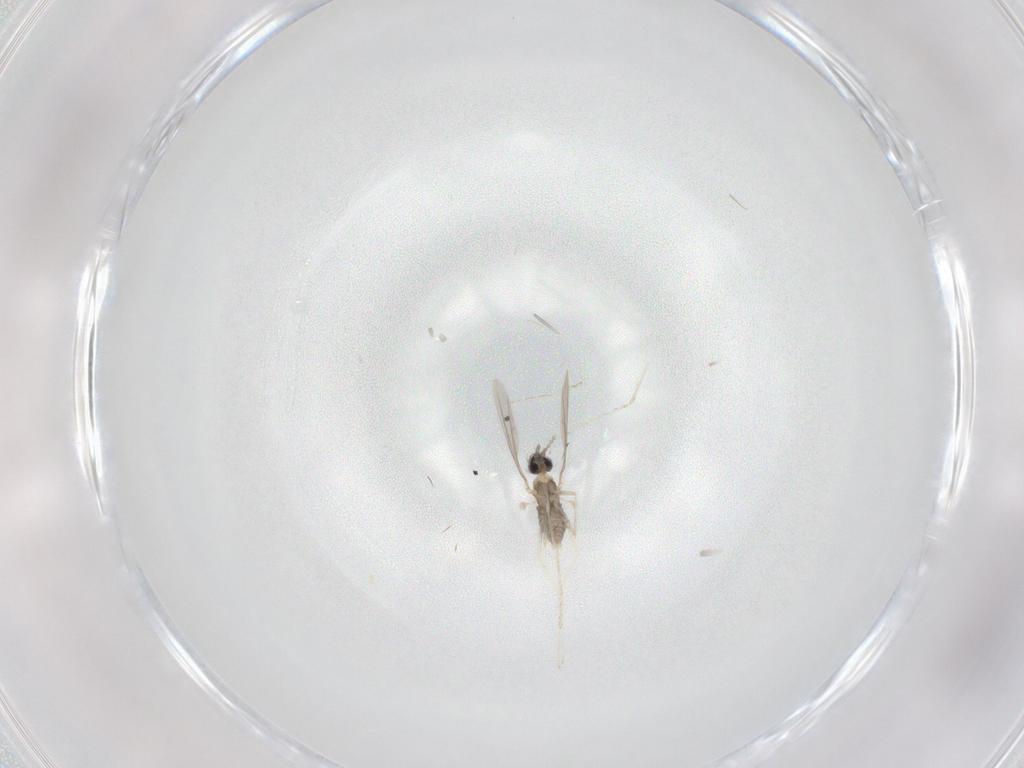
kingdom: Animalia
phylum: Arthropoda
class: Insecta
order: Diptera
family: Cecidomyiidae
